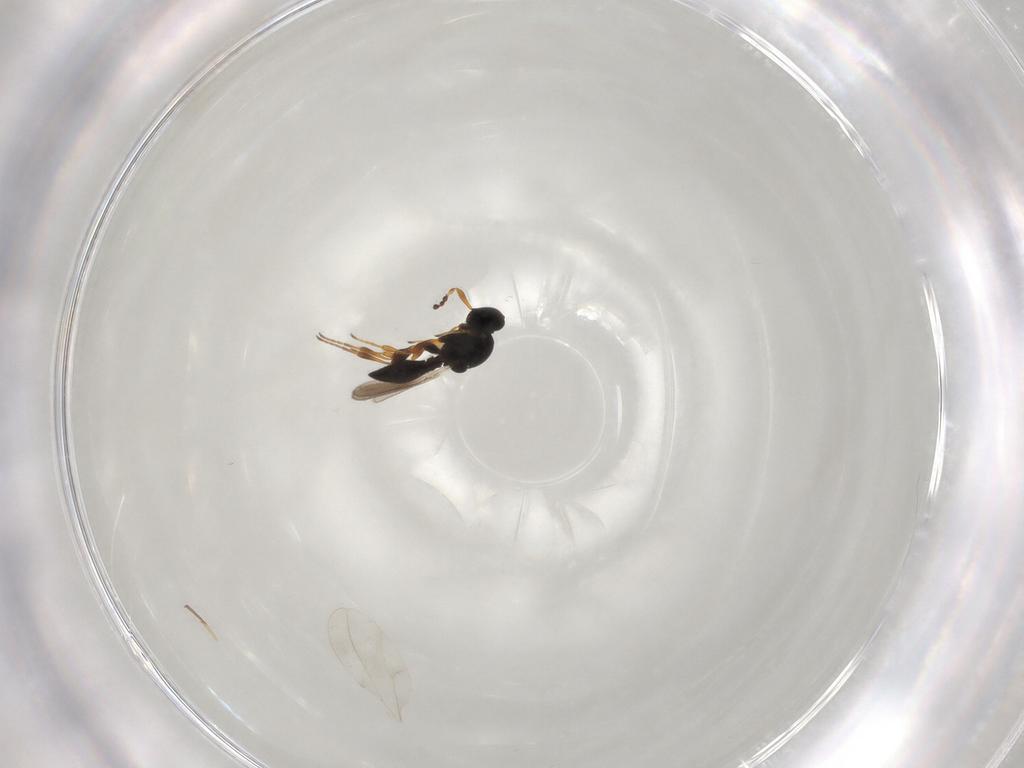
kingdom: Animalia
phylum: Arthropoda
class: Insecta
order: Hymenoptera
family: Platygastridae
